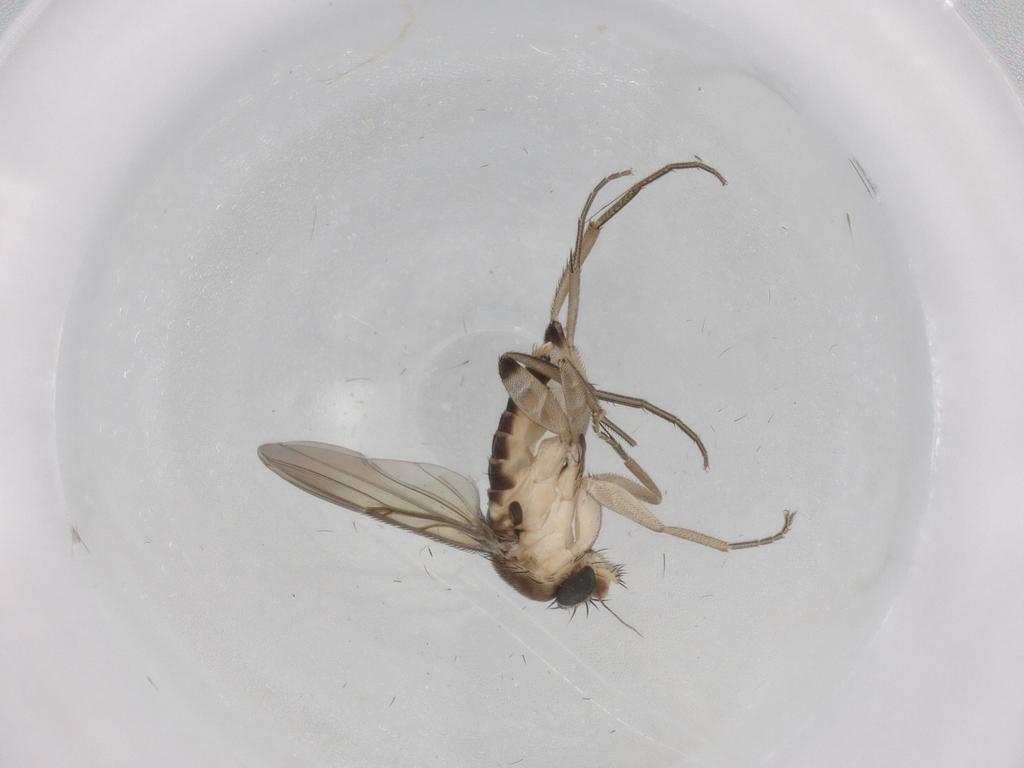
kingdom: Animalia
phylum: Arthropoda
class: Insecta
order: Diptera
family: Phoridae
